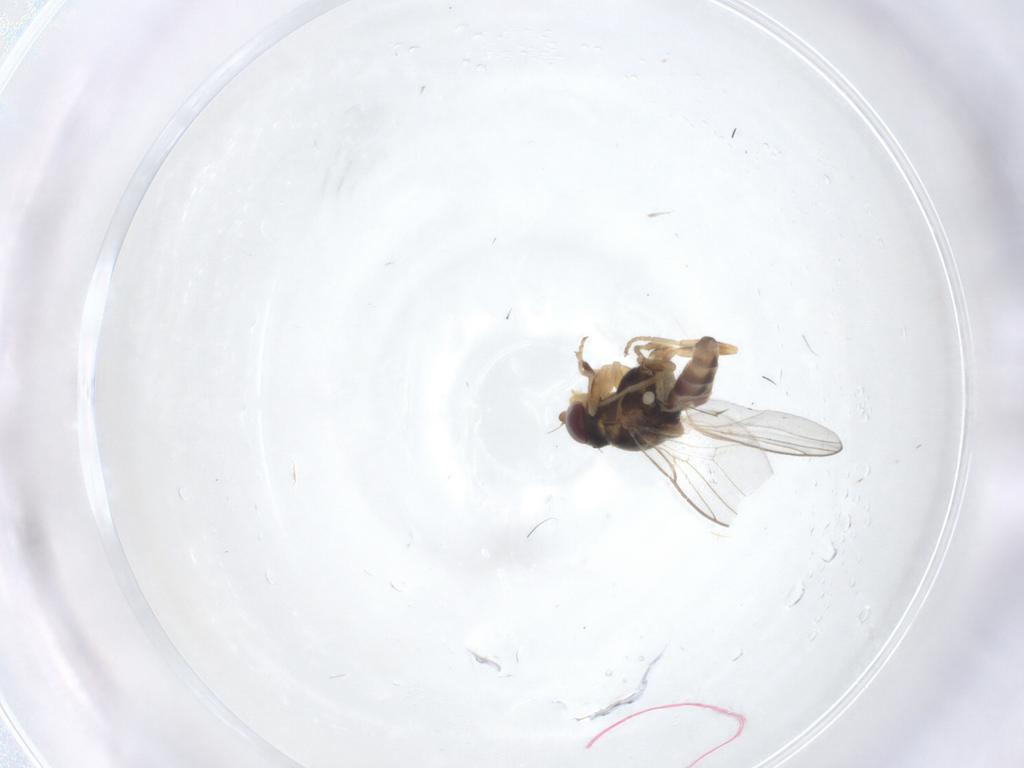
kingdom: Animalia
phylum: Arthropoda
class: Insecta
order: Diptera
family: Chloropidae
